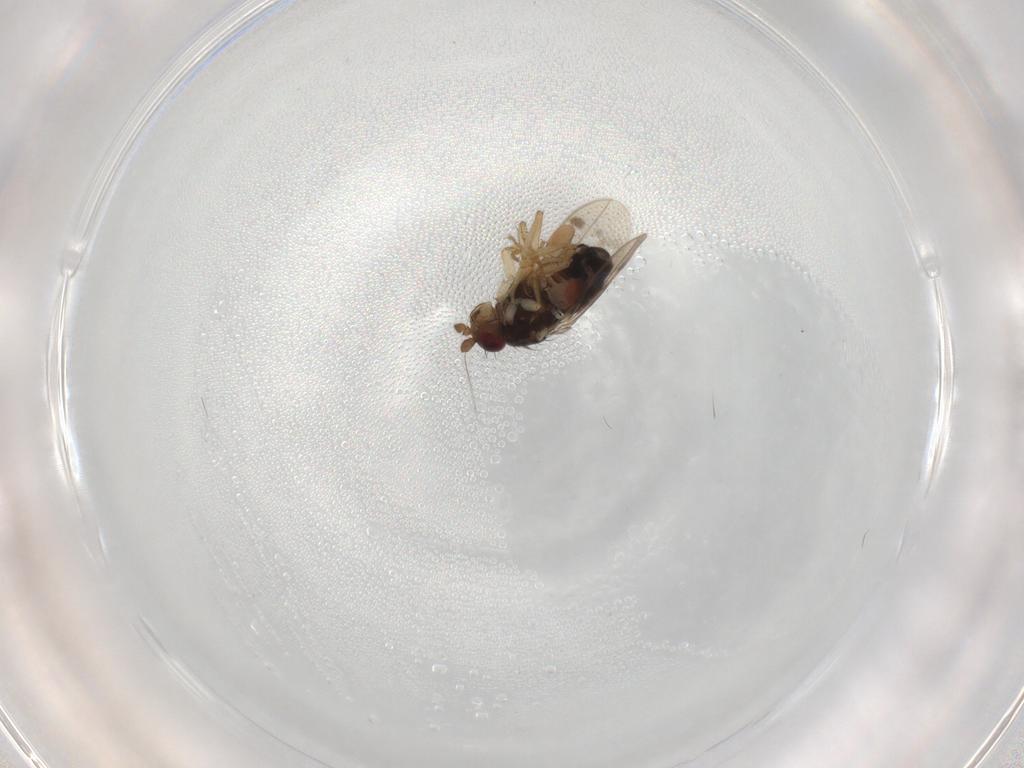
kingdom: Animalia
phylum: Arthropoda
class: Insecta
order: Diptera
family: Sphaeroceridae
